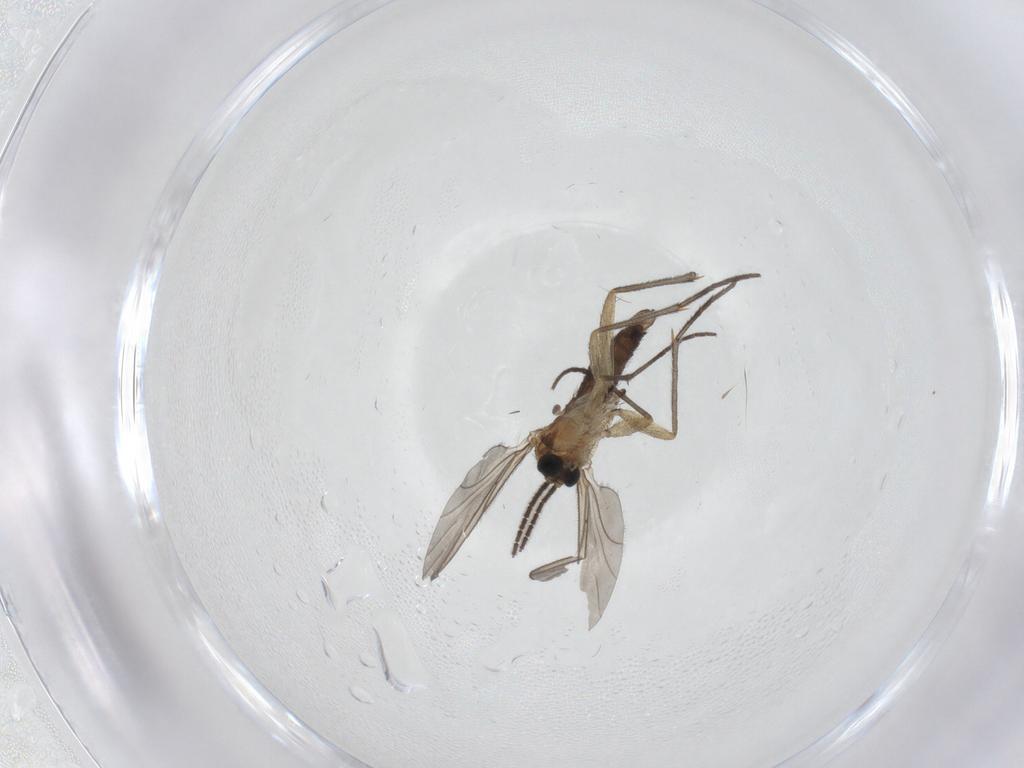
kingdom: Animalia
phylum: Arthropoda
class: Insecta
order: Diptera
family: Sciaridae
